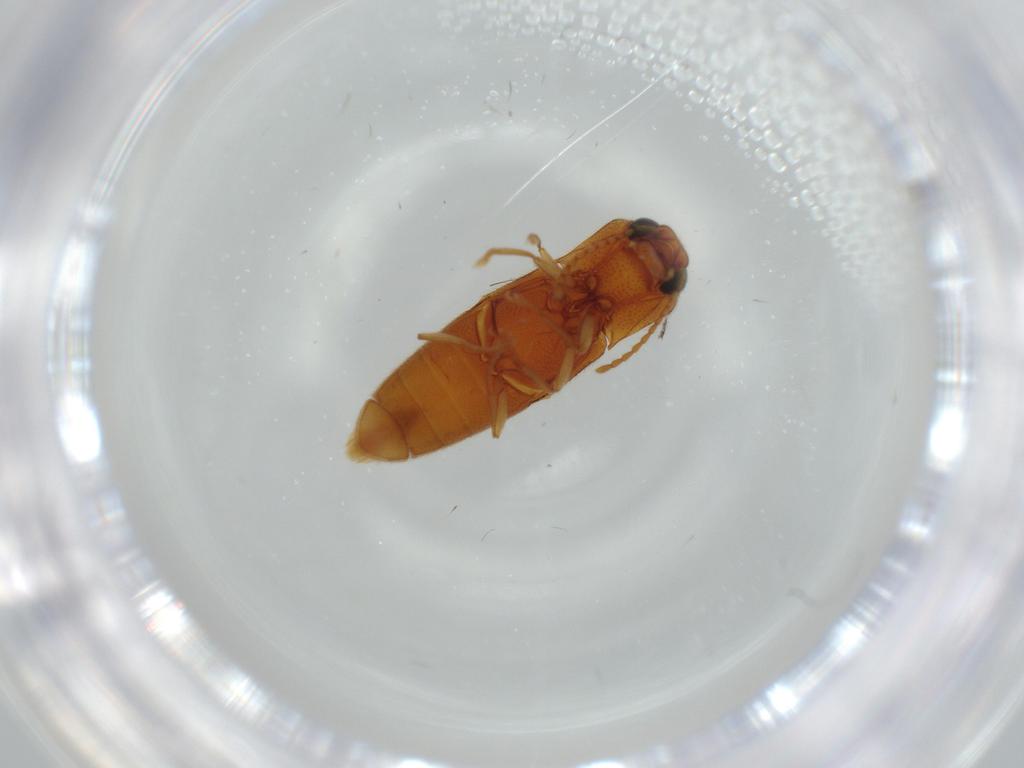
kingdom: Animalia
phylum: Arthropoda
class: Insecta
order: Coleoptera
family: Elateridae
